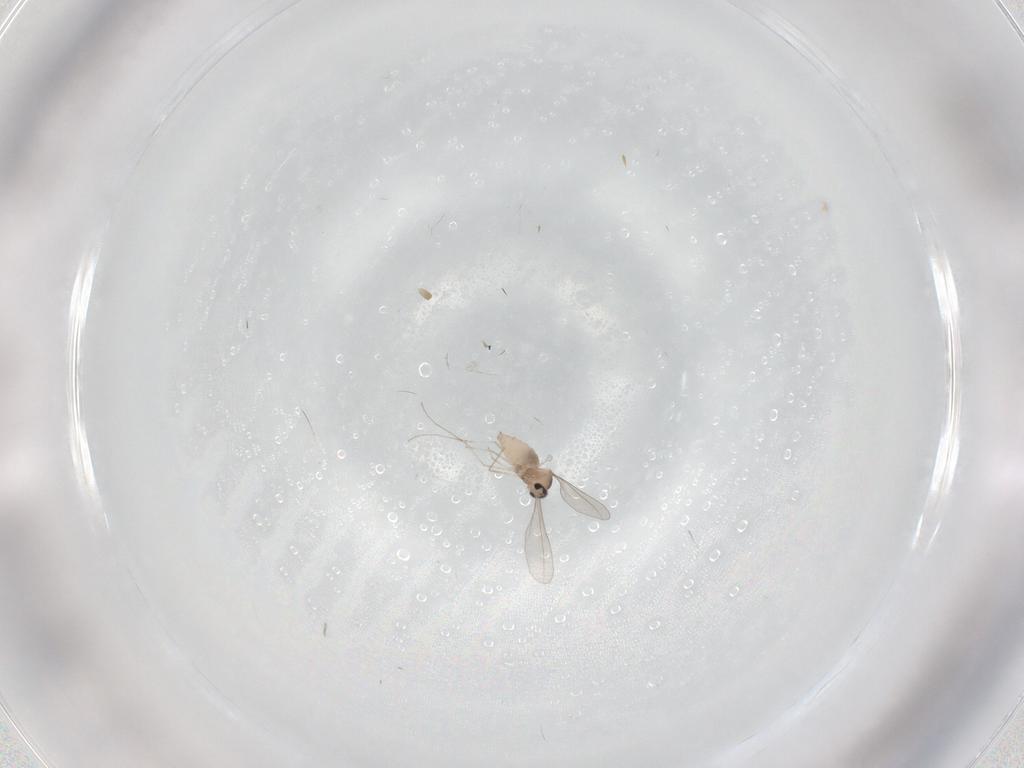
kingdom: Animalia
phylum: Arthropoda
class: Insecta
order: Diptera
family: Cecidomyiidae
